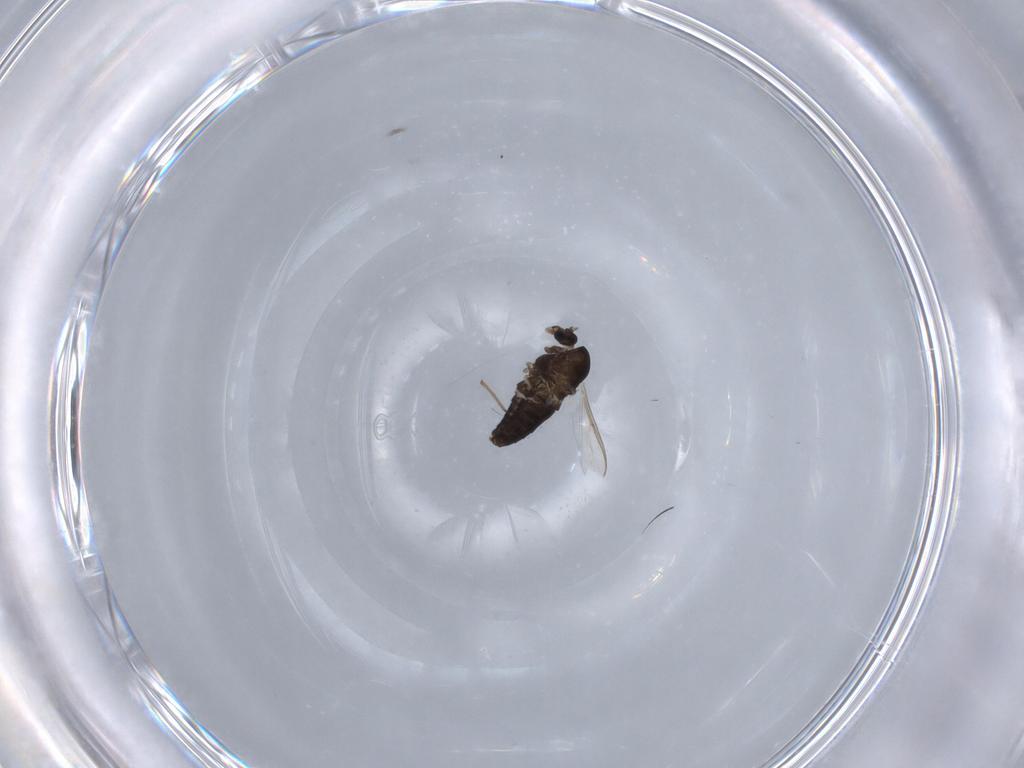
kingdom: Animalia
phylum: Arthropoda
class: Insecta
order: Diptera
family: Chironomidae
